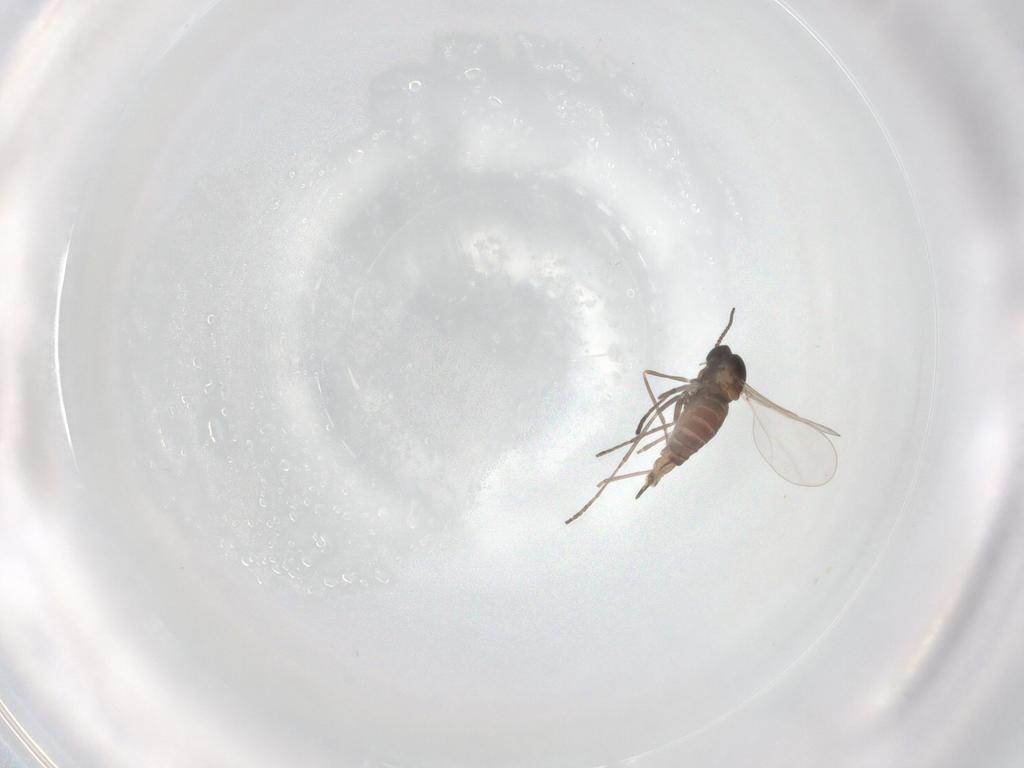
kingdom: Animalia
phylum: Arthropoda
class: Insecta
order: Diptera
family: Cecidomyiidae
